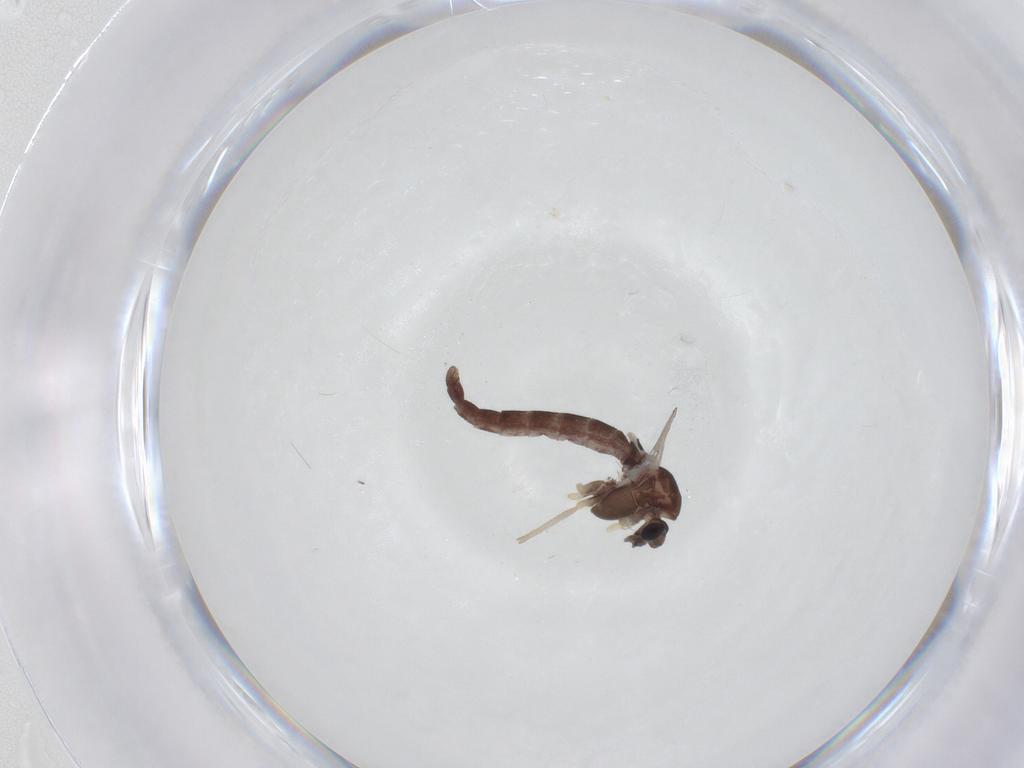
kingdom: Animalia
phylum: Arthropoda
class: Insecta
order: Diptera
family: Chironomidae
